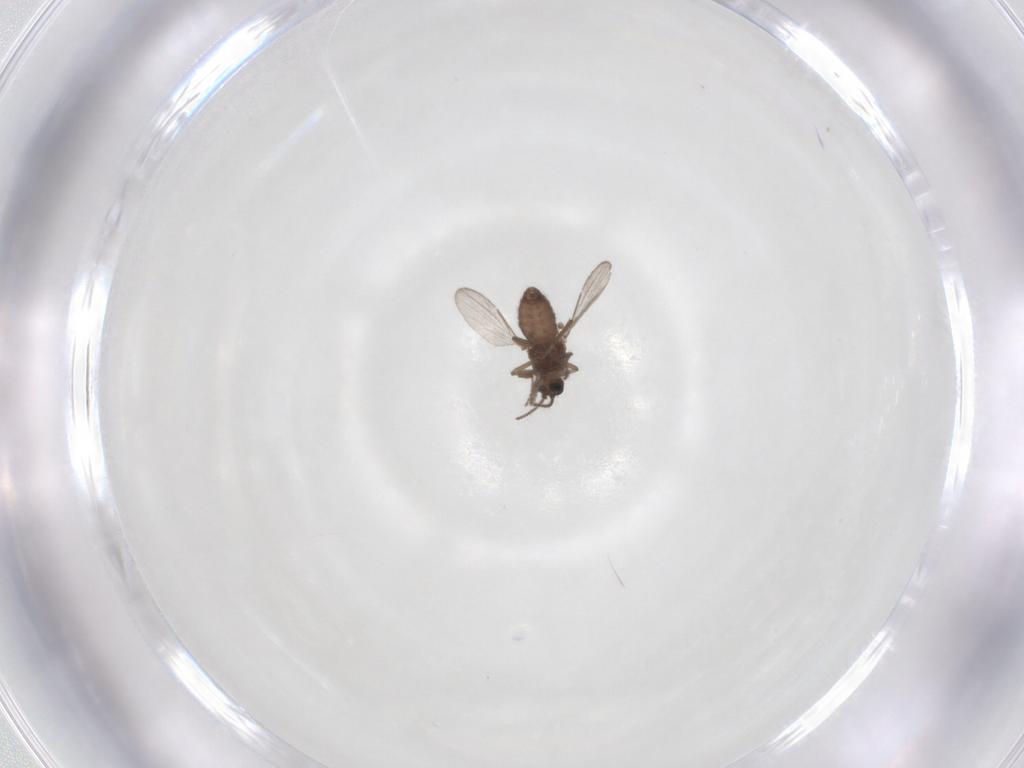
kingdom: Animalia
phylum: Arthropoda
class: Insecta
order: Diptera
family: Ceratopogonidae
